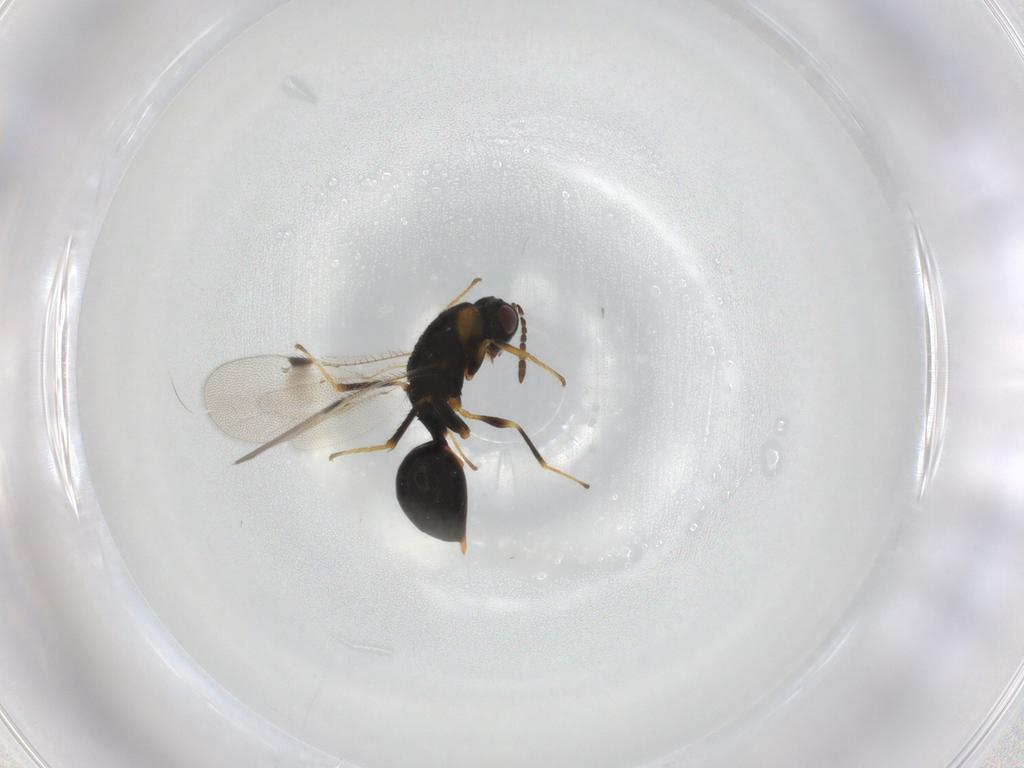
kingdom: Animalia
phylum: Arthropoda
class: Insecta
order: Hymenoptera
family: Eurytomidae
